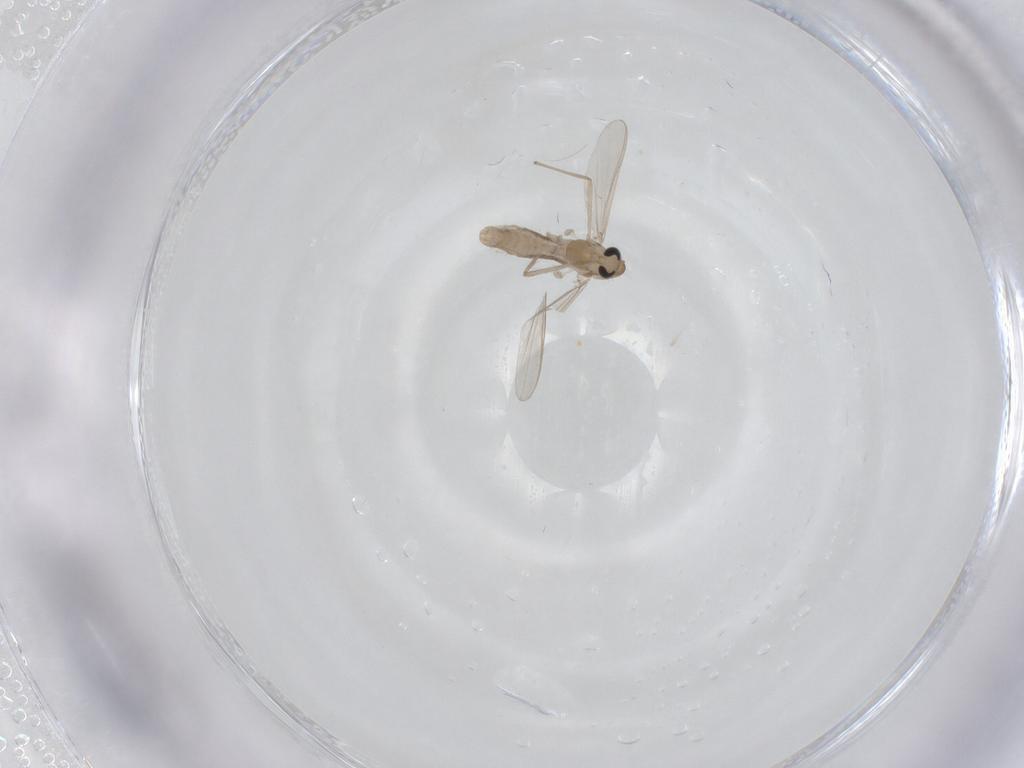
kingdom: Animalia
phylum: Arthropoda
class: Insecta
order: Diptera
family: Chironomidae
